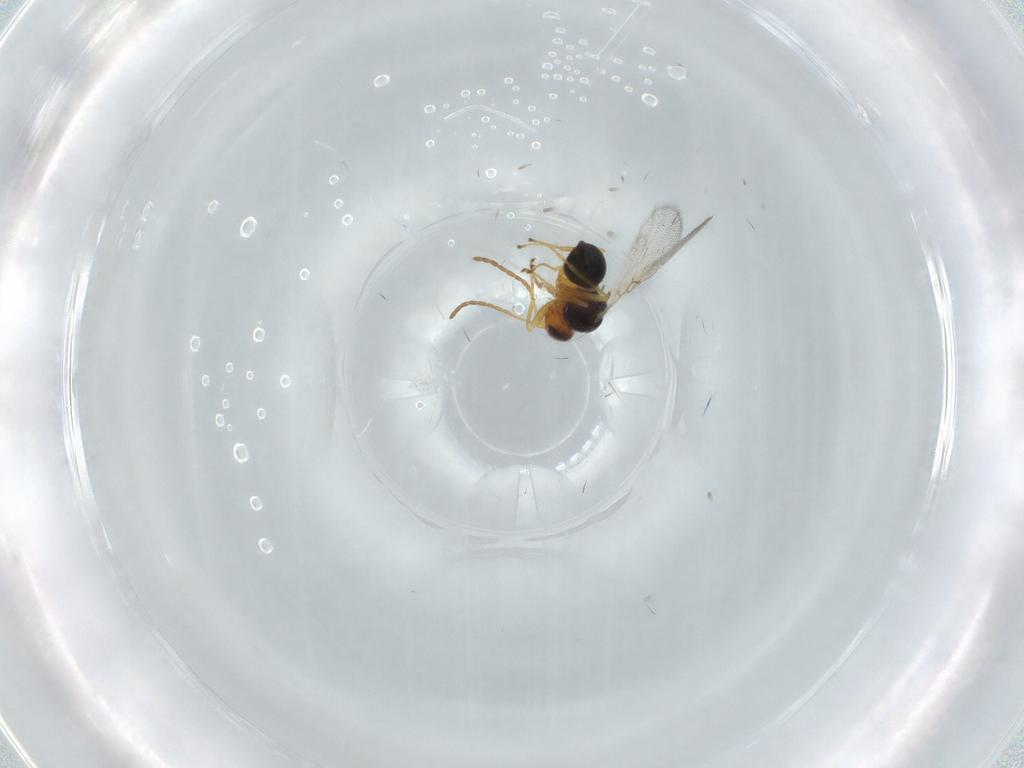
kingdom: Animalia
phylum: Arthropoda
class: Insecta
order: Hymenoptera
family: Figitidae
